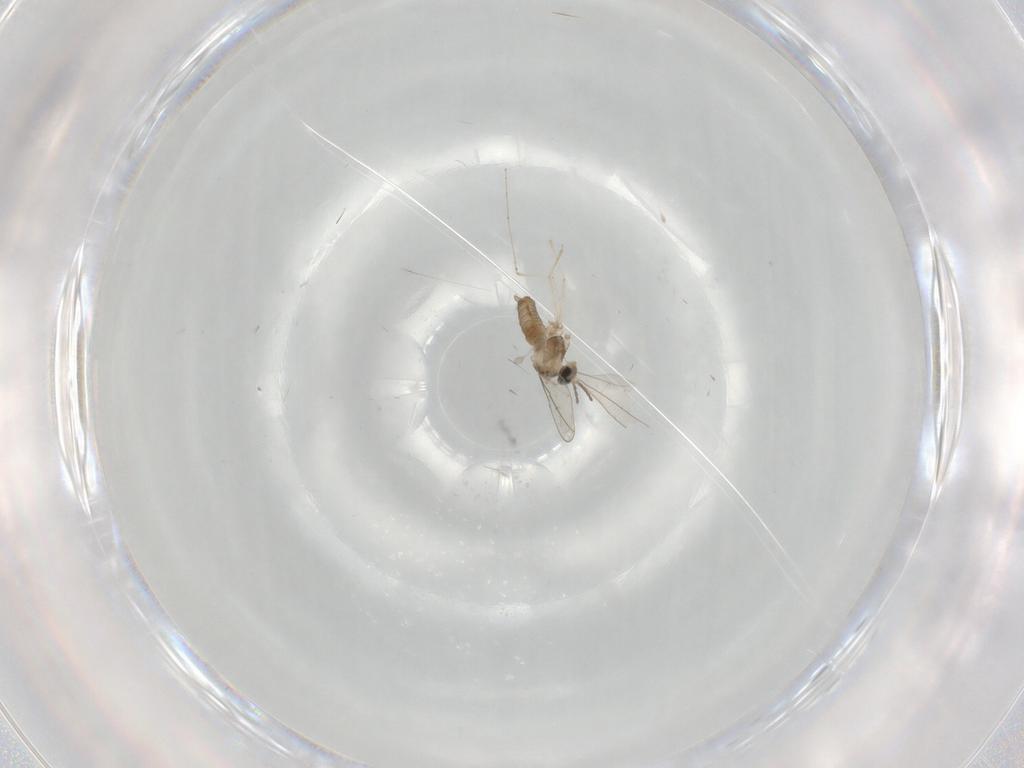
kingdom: Animalia
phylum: Arthropoda
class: Insecta
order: Diptera
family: Cecidomyiidae
